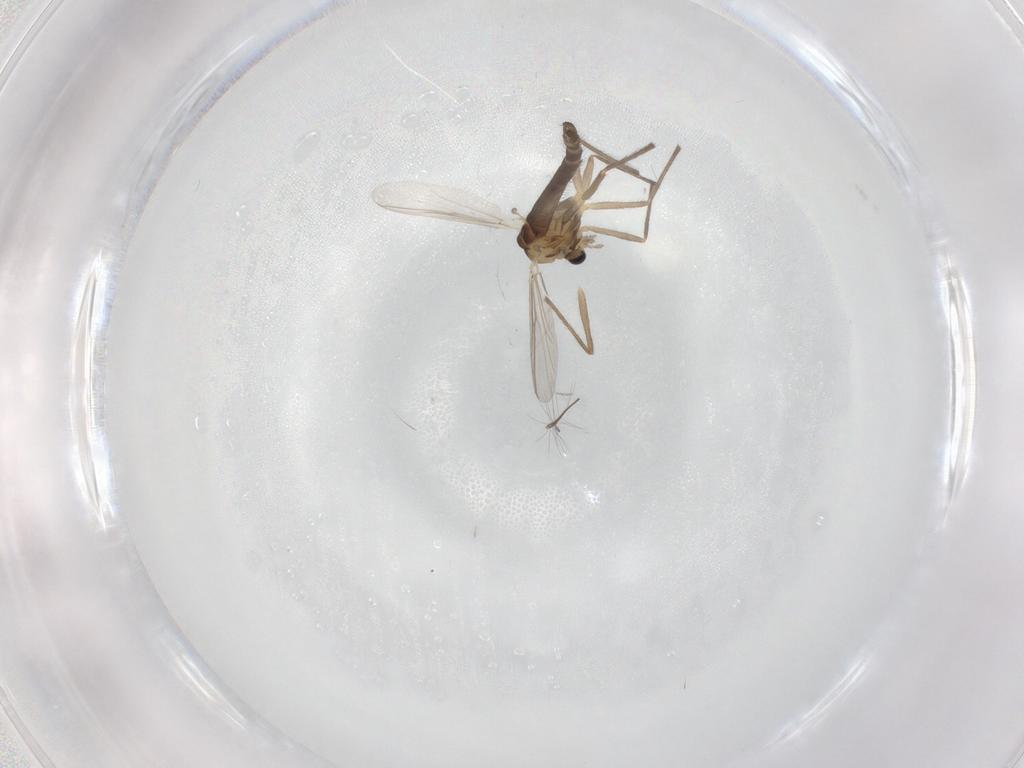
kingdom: Animalia
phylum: Arthropoda
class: Insecta
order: Diptera
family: Chironomidae
